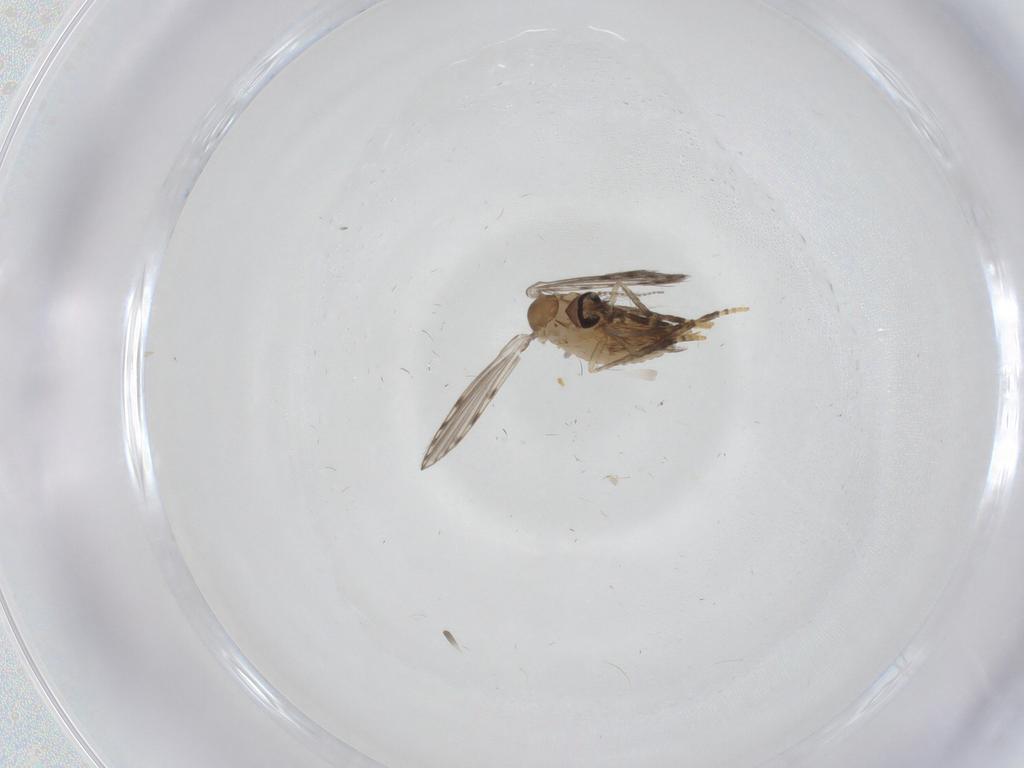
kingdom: Animalia
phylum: Arthropoda
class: Insecta
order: Diptera
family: Psychodidae
